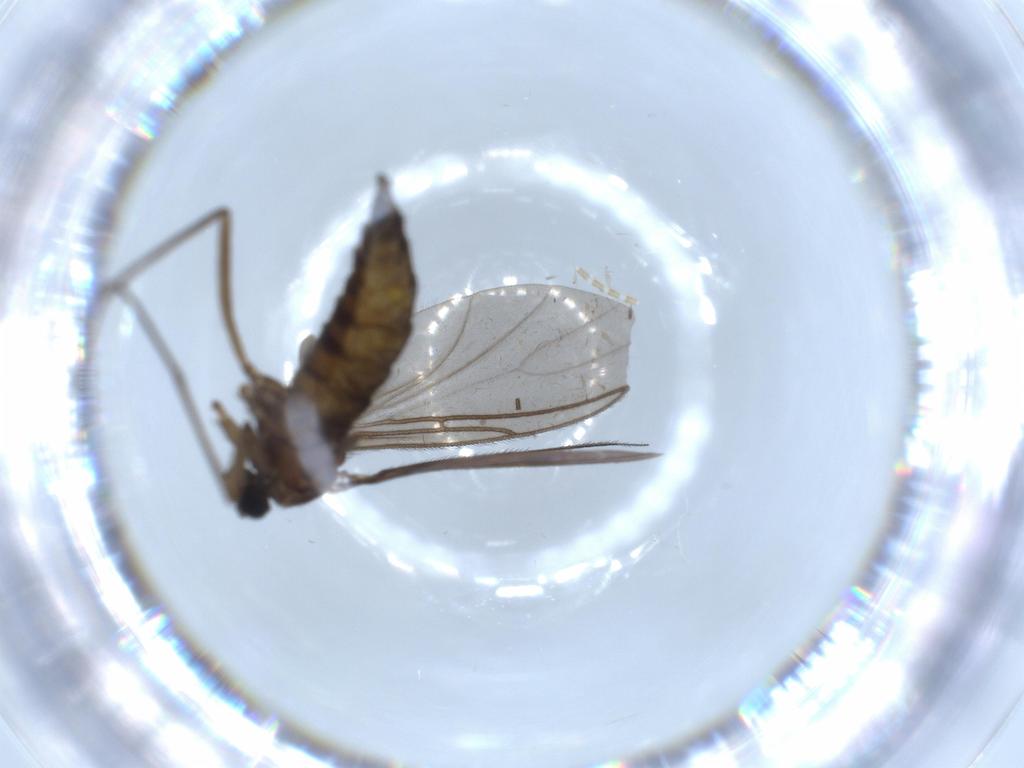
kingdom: Animalia
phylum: Arthropoda
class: Insecta
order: Diptera
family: Sciaridae
